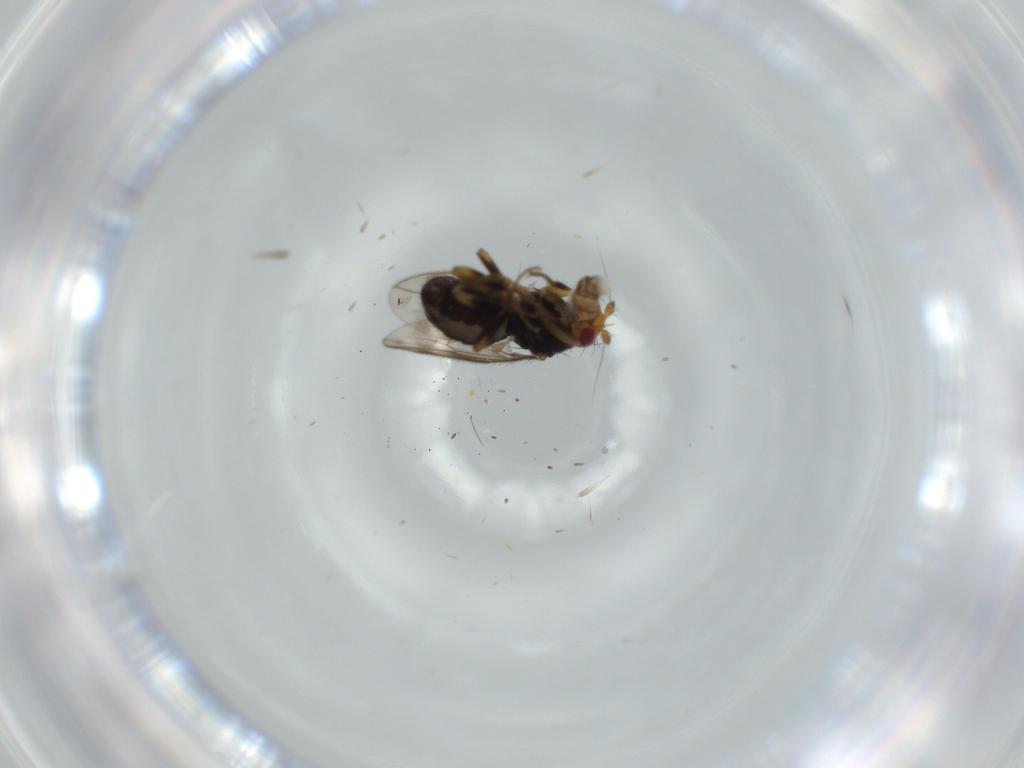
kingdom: Animalia
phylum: Arthropoda
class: Insecta
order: Diptera
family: Sphaeroceridae
